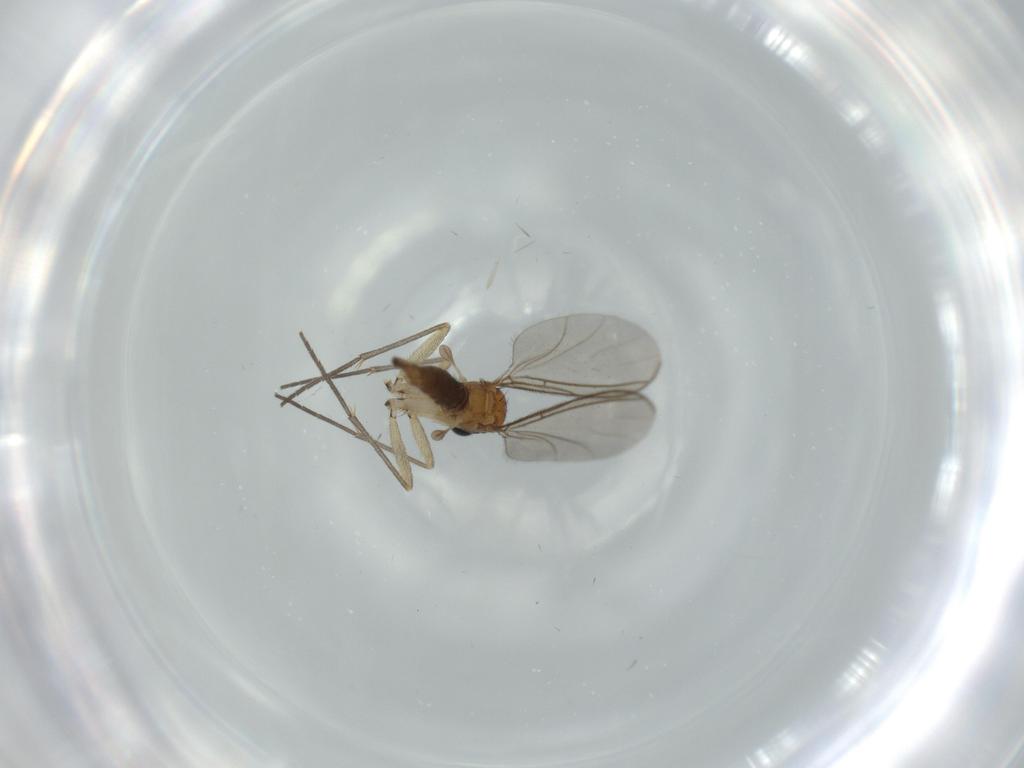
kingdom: Animalia
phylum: Arthropoda
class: Insecta
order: Diptera
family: Sciaridae
